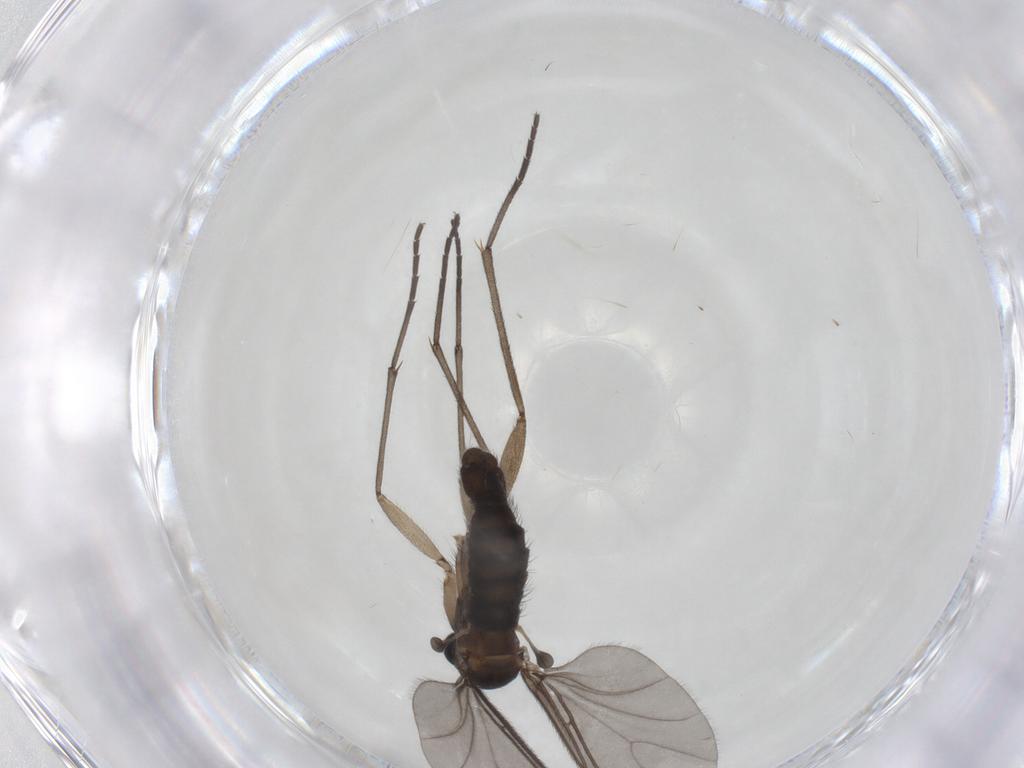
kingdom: Animalia
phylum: Arthropoda
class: Insecta
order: Diptera
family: Sciaridae
